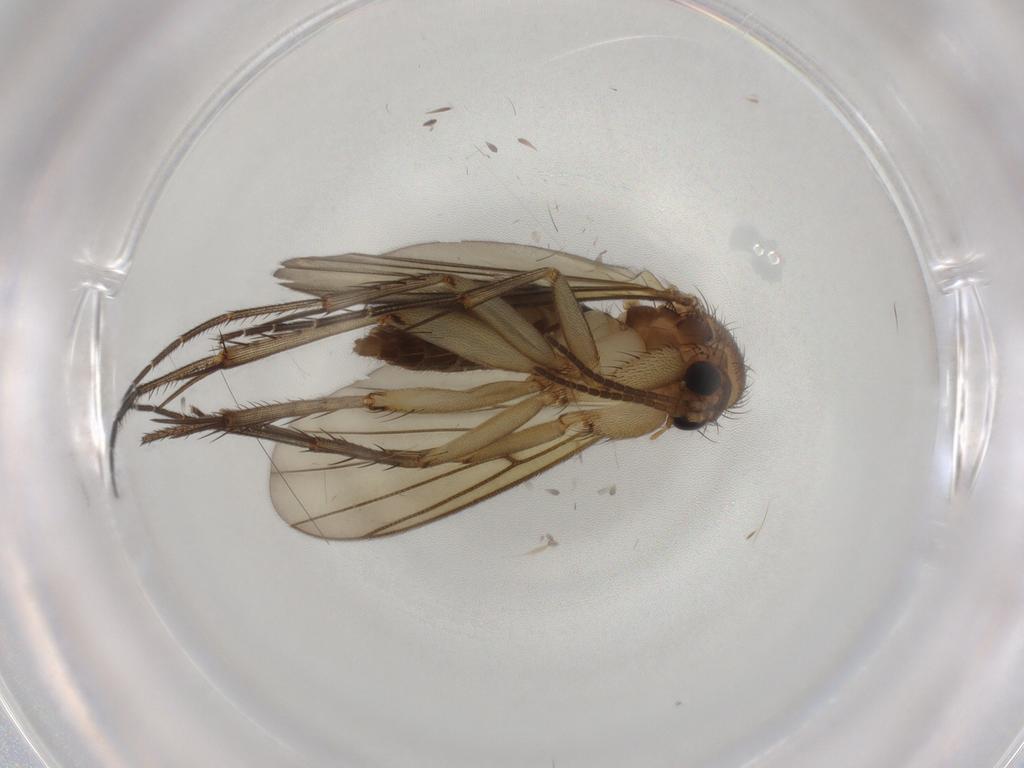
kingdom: Animalia
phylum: Arthropoda
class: Insecta
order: Diptera
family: Mycetophilidae
